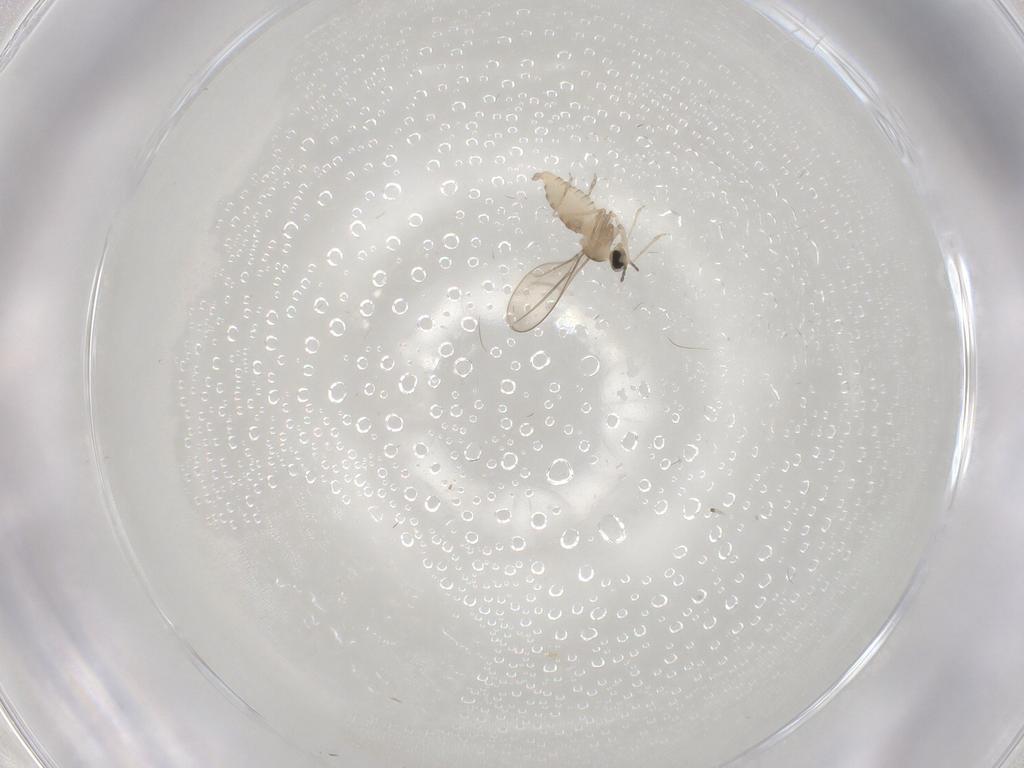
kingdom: Animalia
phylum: Arthropoda
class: Insecta
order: Diptera
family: Cecidomyiidae
